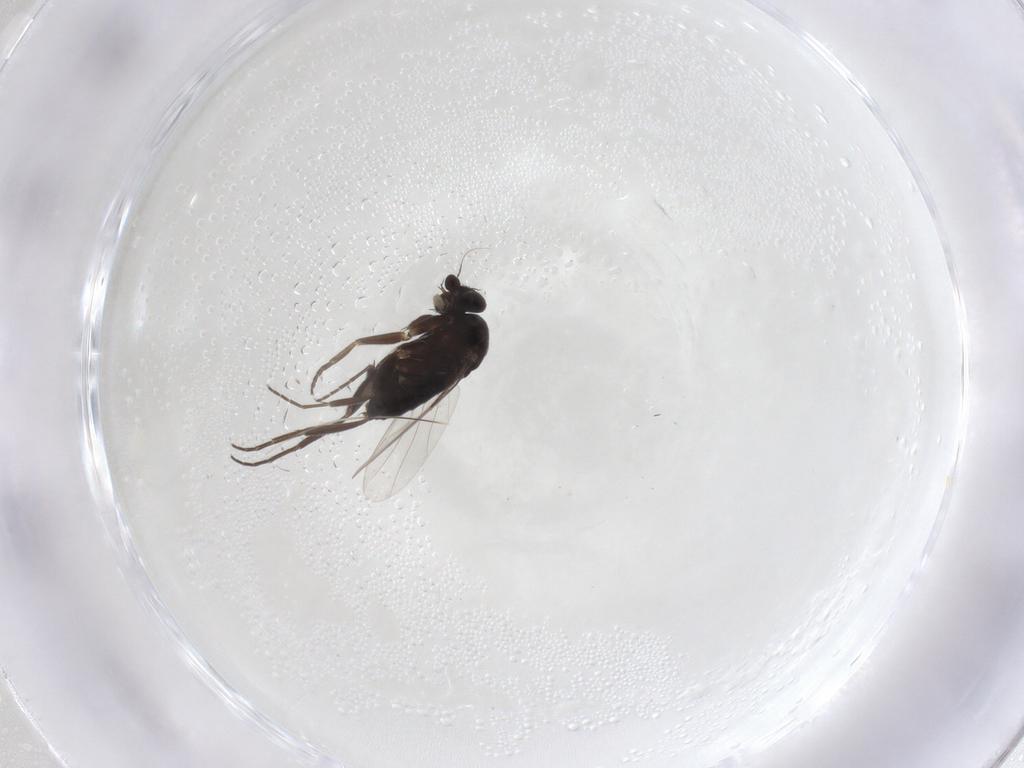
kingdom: Animalia
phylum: Arthropoda
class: Insecta
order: Diptera
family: Phoridae
